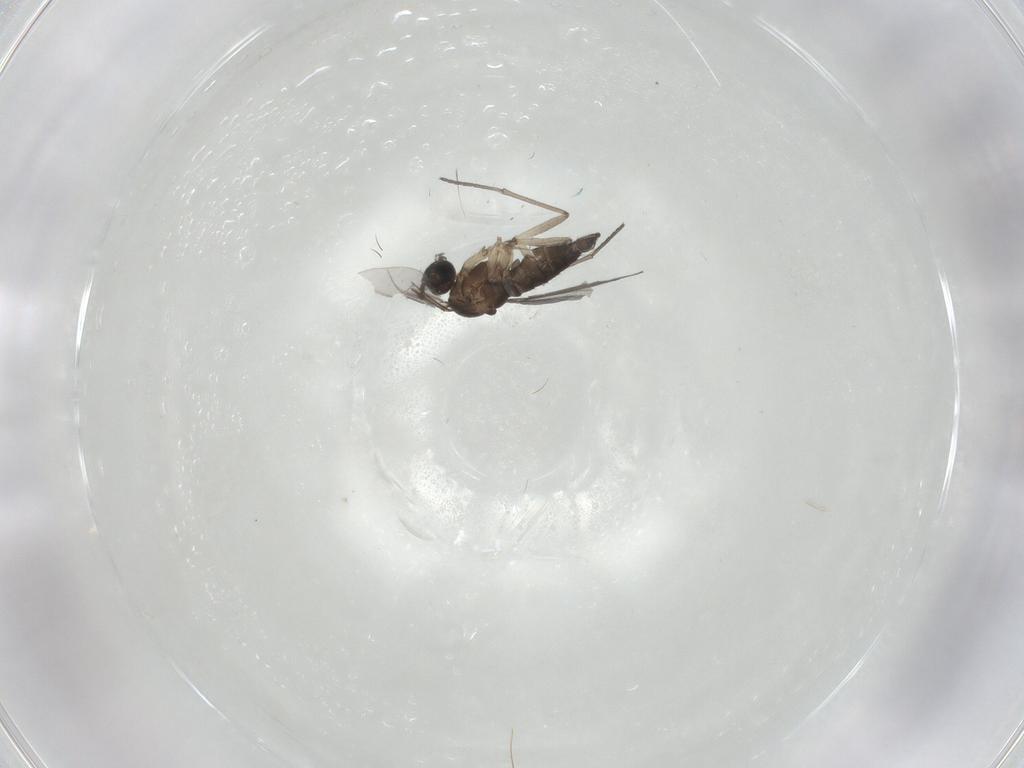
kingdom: Animalia
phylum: Arthropoda
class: Insecta
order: Diptera
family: Sciaridae
